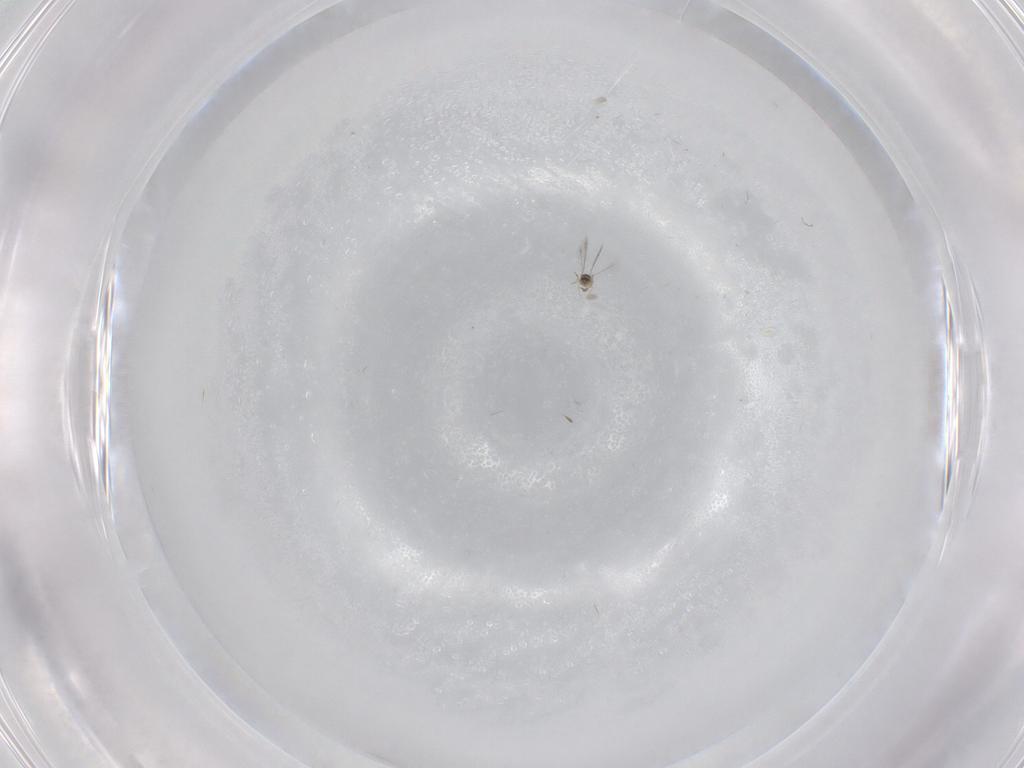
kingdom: Animalia
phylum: Arthropoda
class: Insecta
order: Hymenoptera
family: Mymaridae
